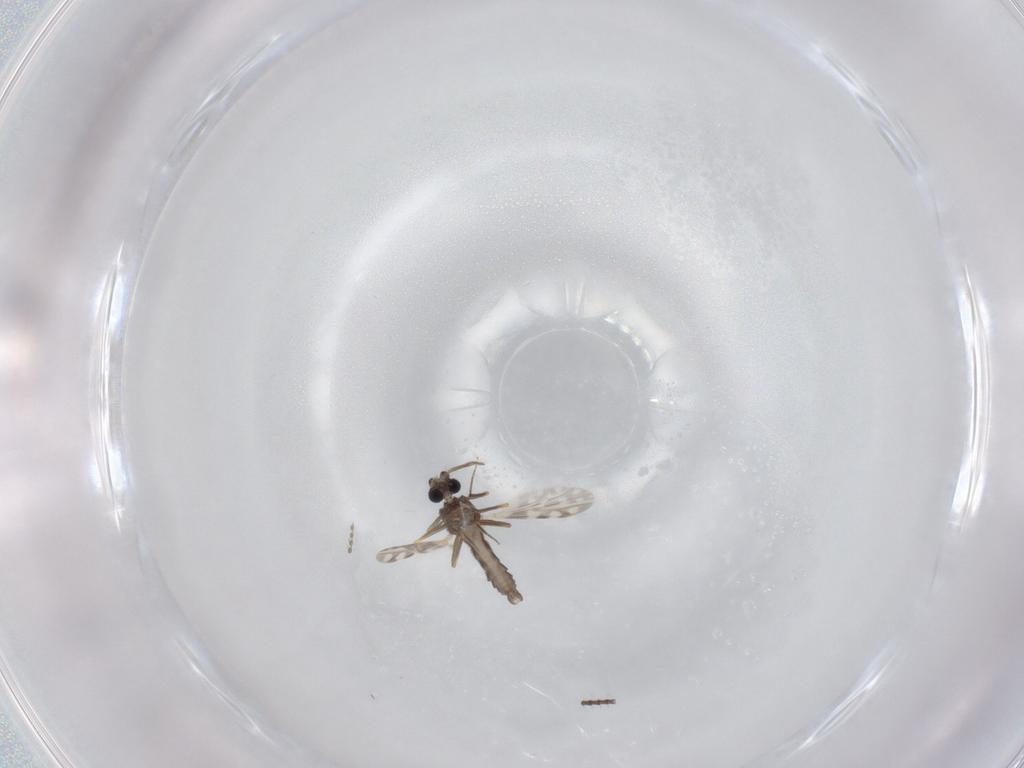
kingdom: Animalia
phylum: Arthropoda
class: Insecta
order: Diptera
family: Ceratopogonidae
